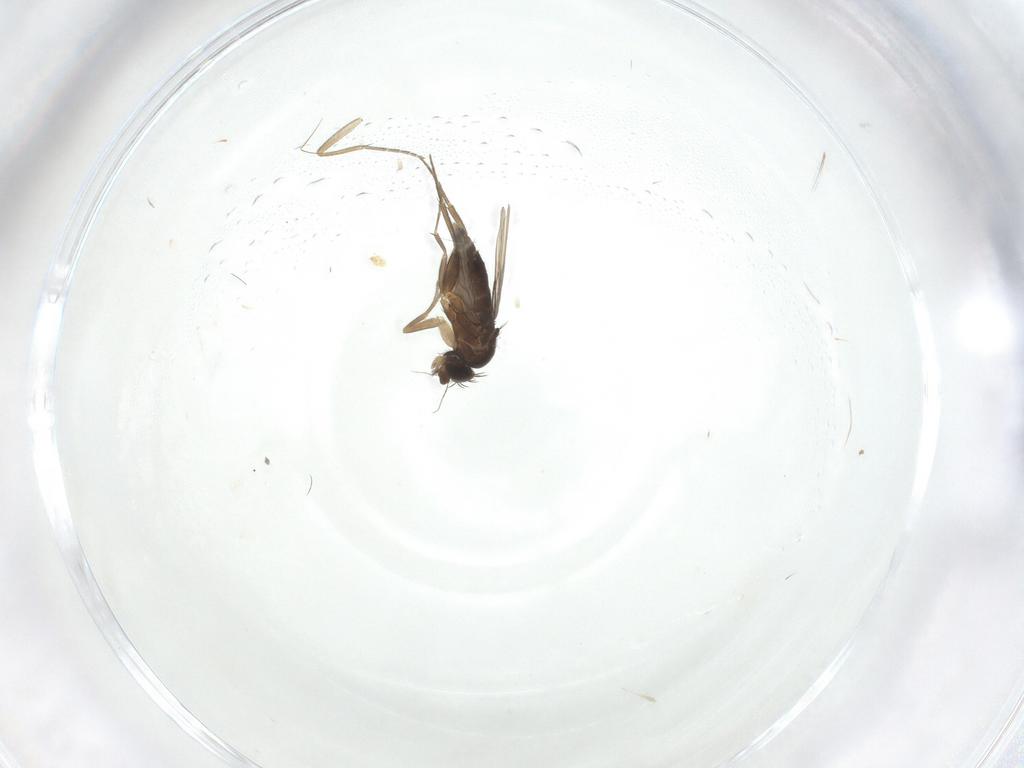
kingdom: Animalia
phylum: Arthropoda
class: Insecta
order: Diptera
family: Phoridae
